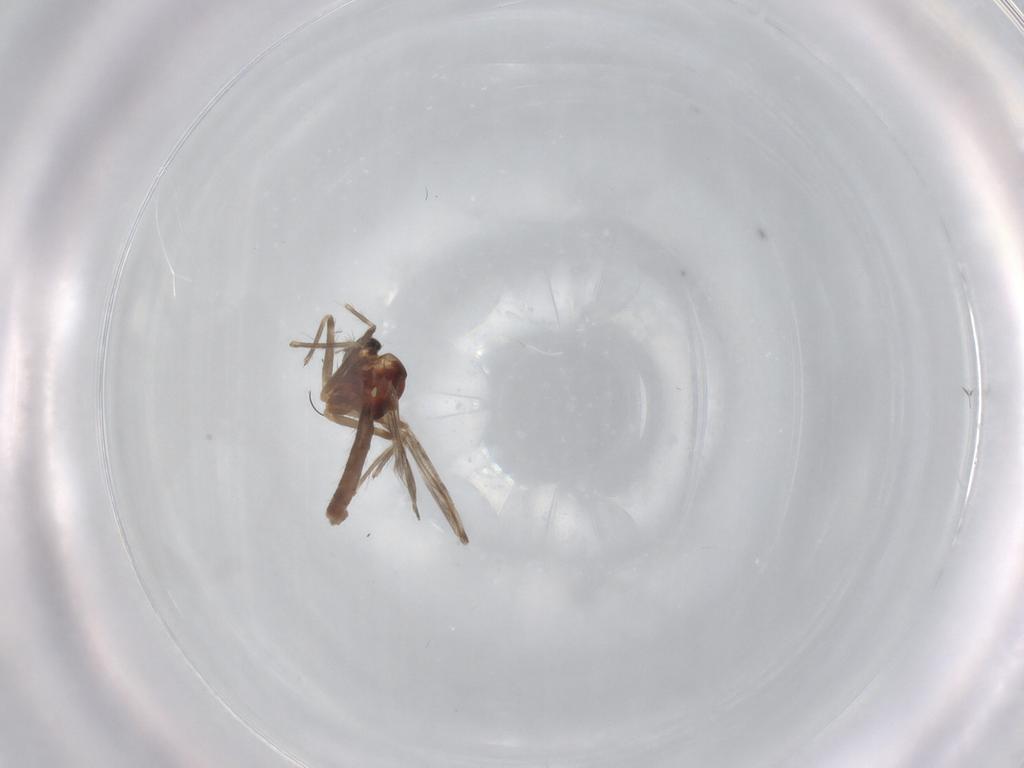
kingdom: Animalia
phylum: Arthropoda
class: Insecta
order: Diptera
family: Chironomidae
